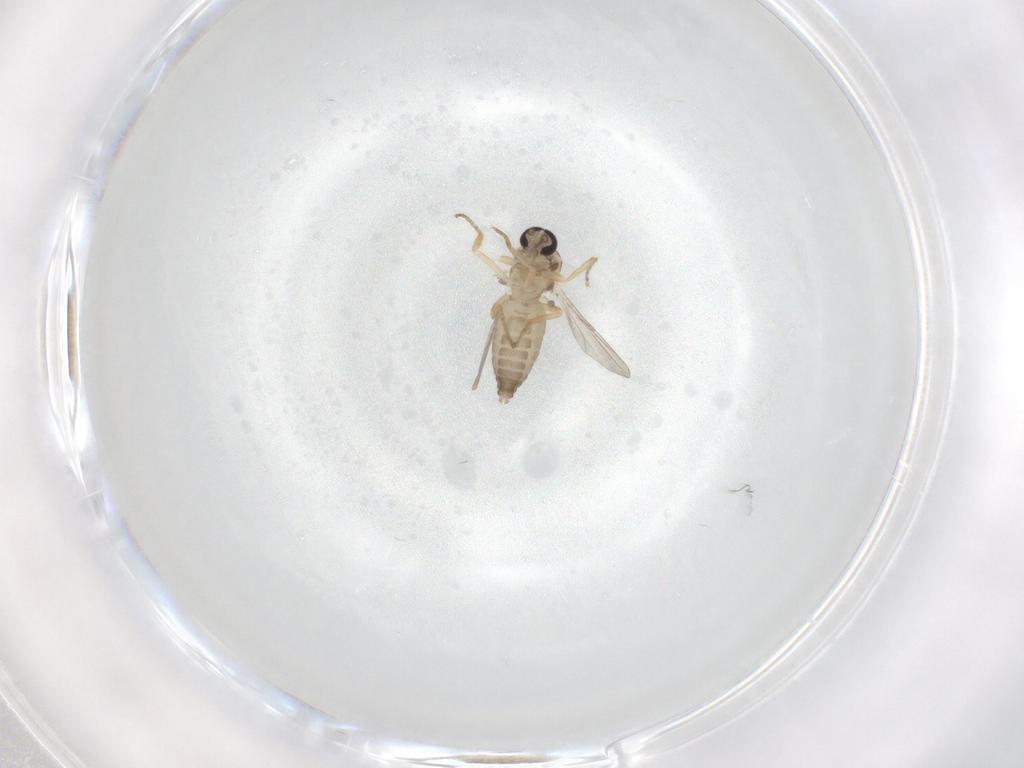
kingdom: Animalia
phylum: Arthropoda
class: Insecta
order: Diptera
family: Ceratopogonidae
